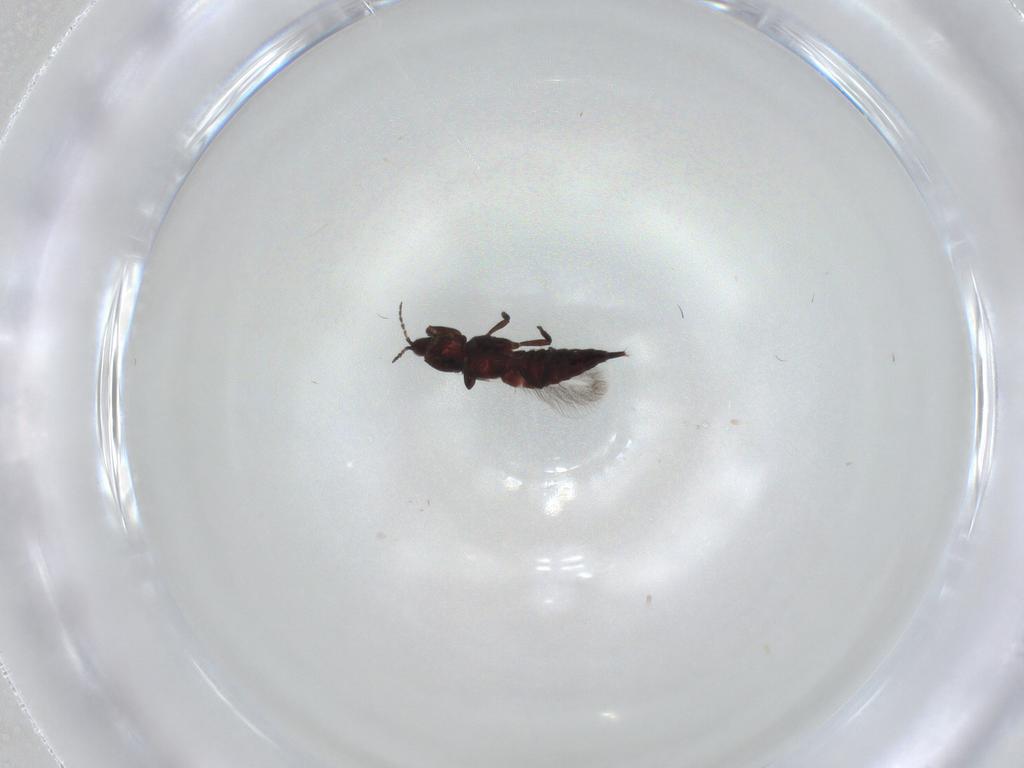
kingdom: Animalia
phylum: Arthropoda
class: Insecta
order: Thysanoptera
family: Phlaeothripidae
